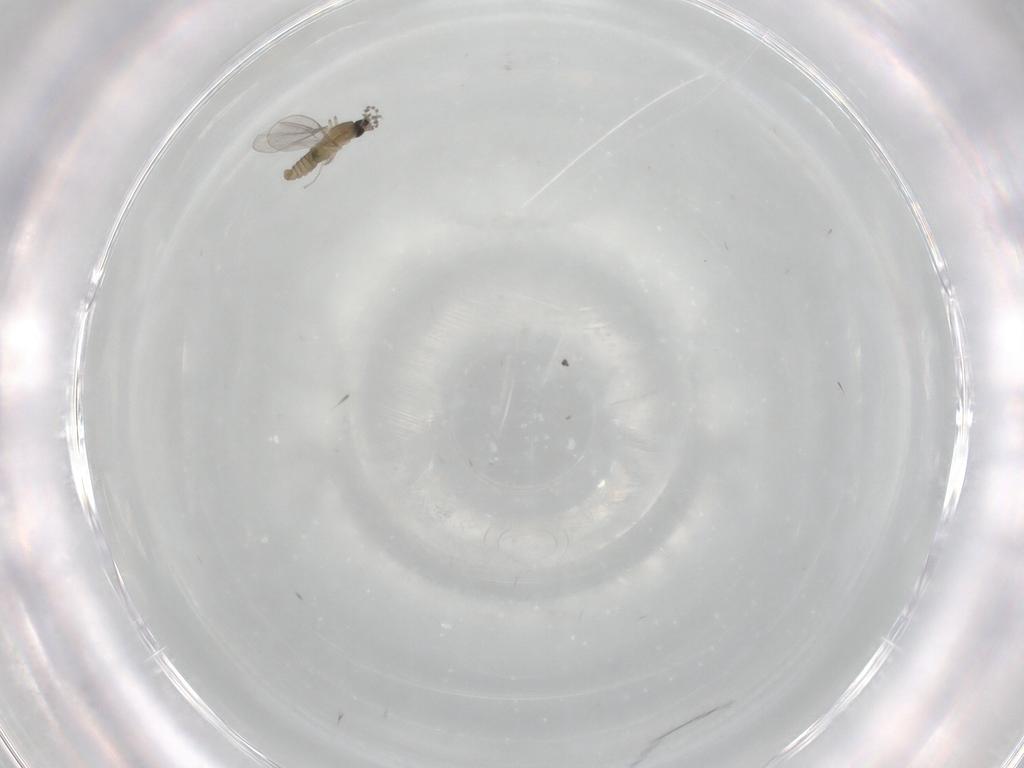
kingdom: Animalia
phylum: Arthropoda
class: Insecta
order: Diptera
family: Cecidomyiidae
